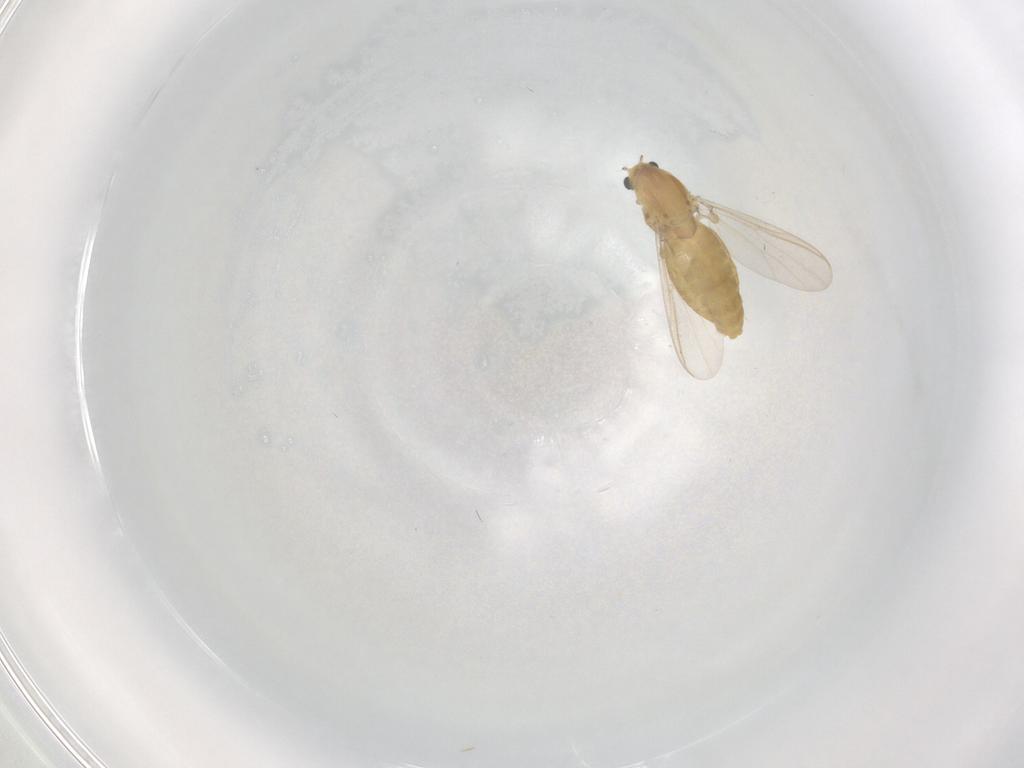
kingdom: Animalia
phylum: Arthropoda
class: Insecta
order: Diptera
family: Chironomidae
